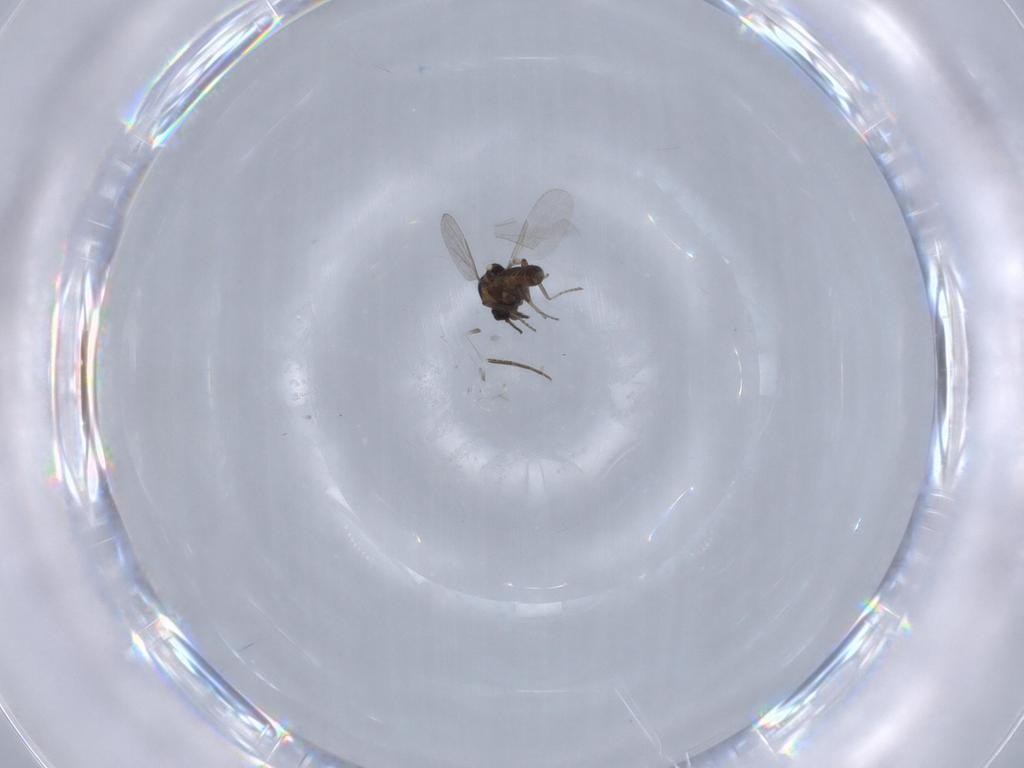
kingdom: Animalia
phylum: Arthropoda
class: Insecta
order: Diptera
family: Ceratopogonidae
